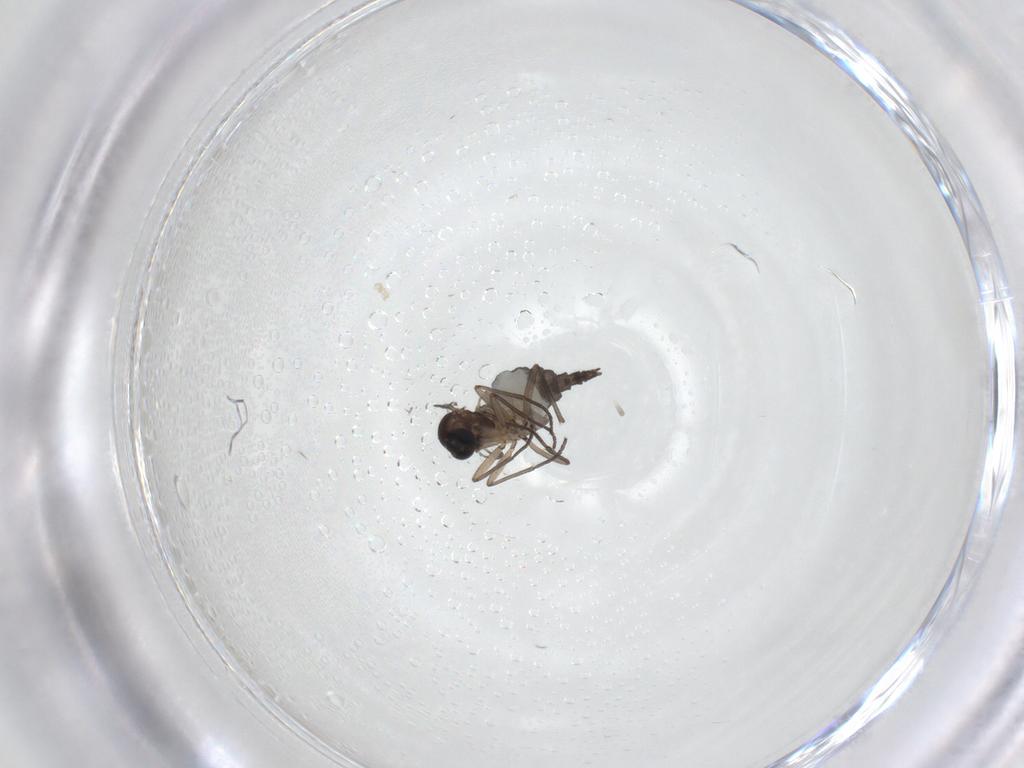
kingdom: Animalia
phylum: Arthropoda
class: Insecta
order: Diptera
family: Sciaridae
